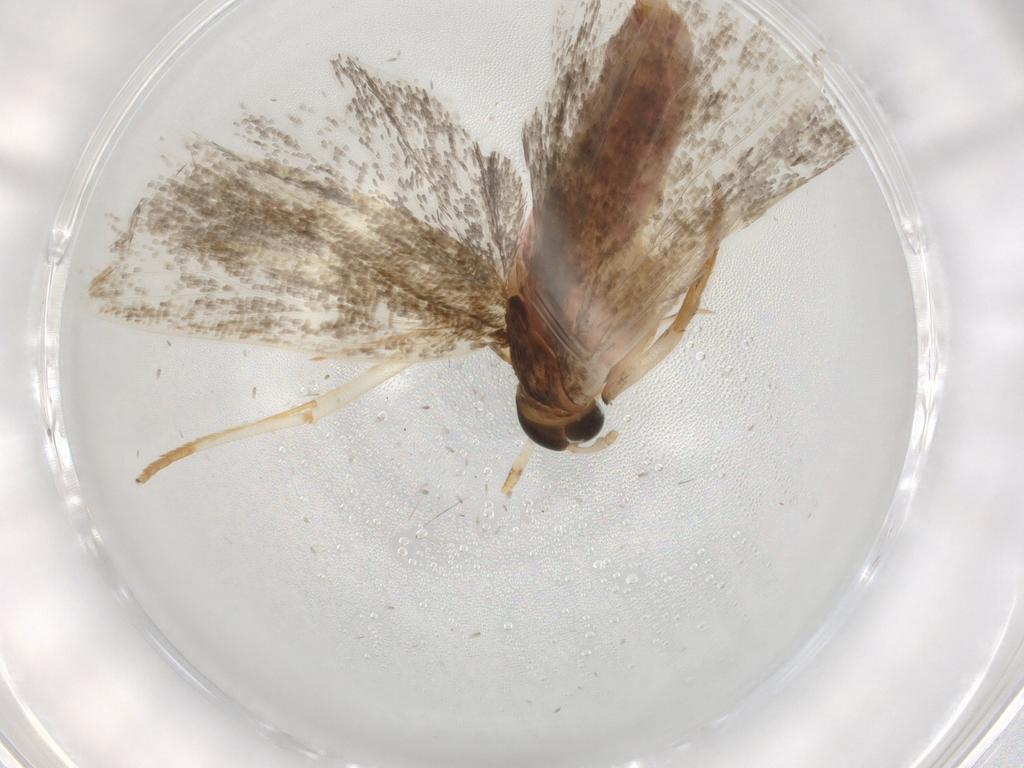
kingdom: Animalia
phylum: Arthropoda
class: Insecta
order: Lepidoptera
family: Autostichidae
